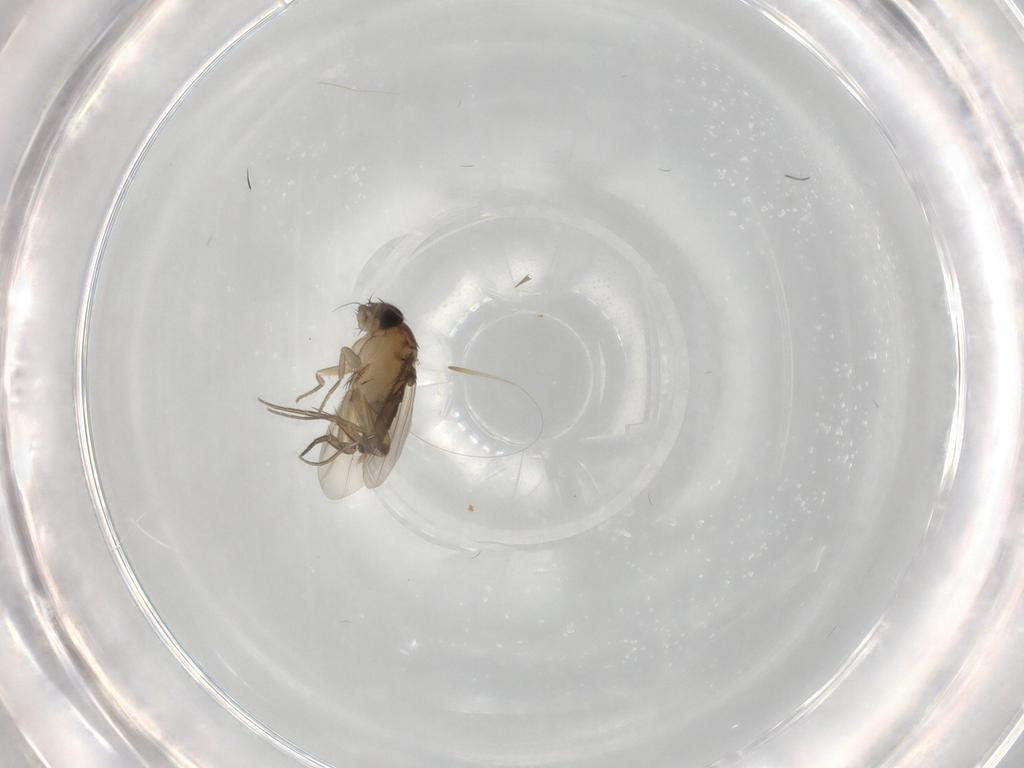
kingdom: Animalia
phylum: Arthropoda
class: Insecta
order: Diptera
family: Phoridae
